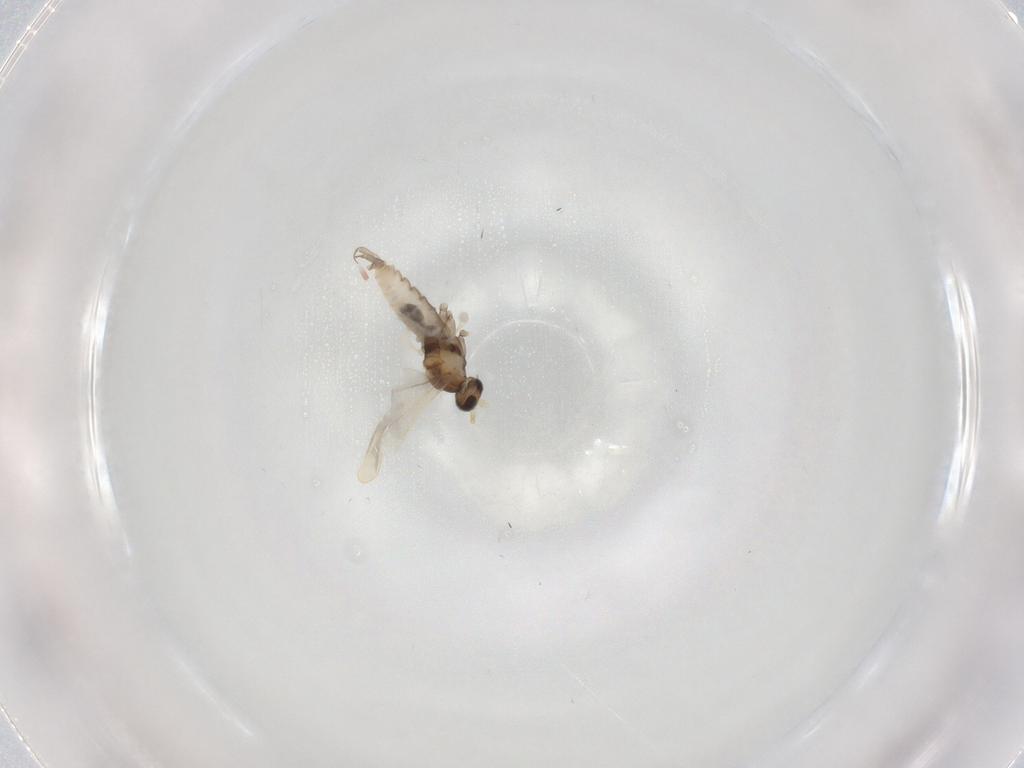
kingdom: Animalia
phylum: Arthropoda
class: Insecta
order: Diptera
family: Cecidomyiidae
